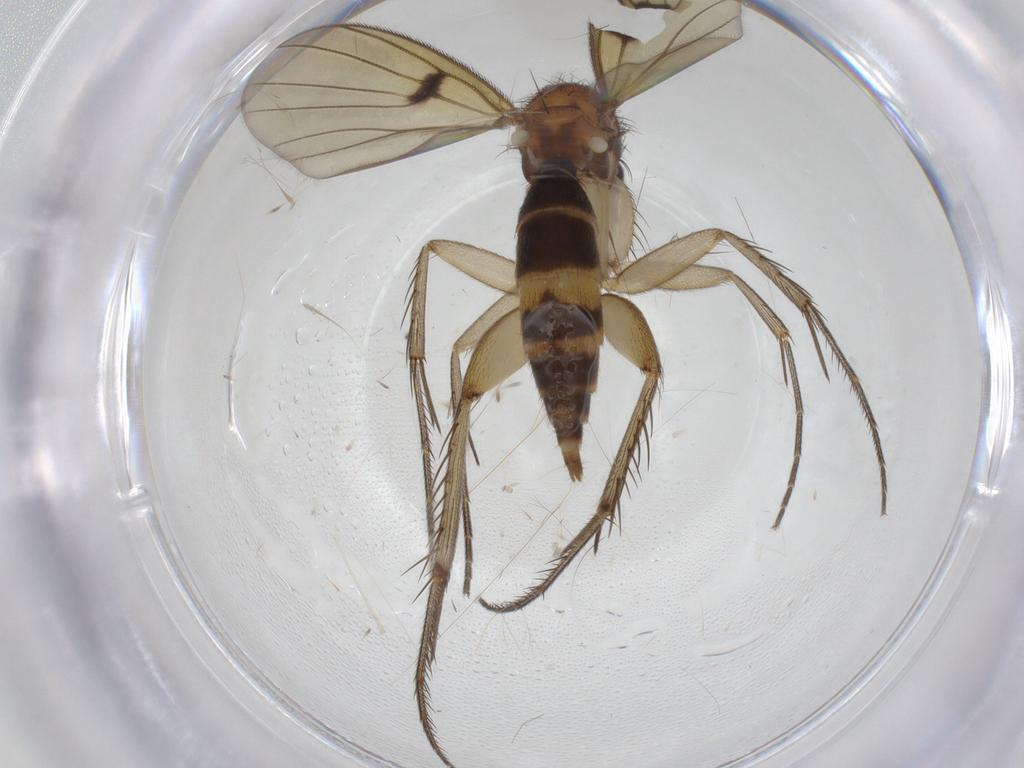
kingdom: Animalia
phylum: Arthropoda
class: Insecta
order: Diptera
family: Mycetophilidae
